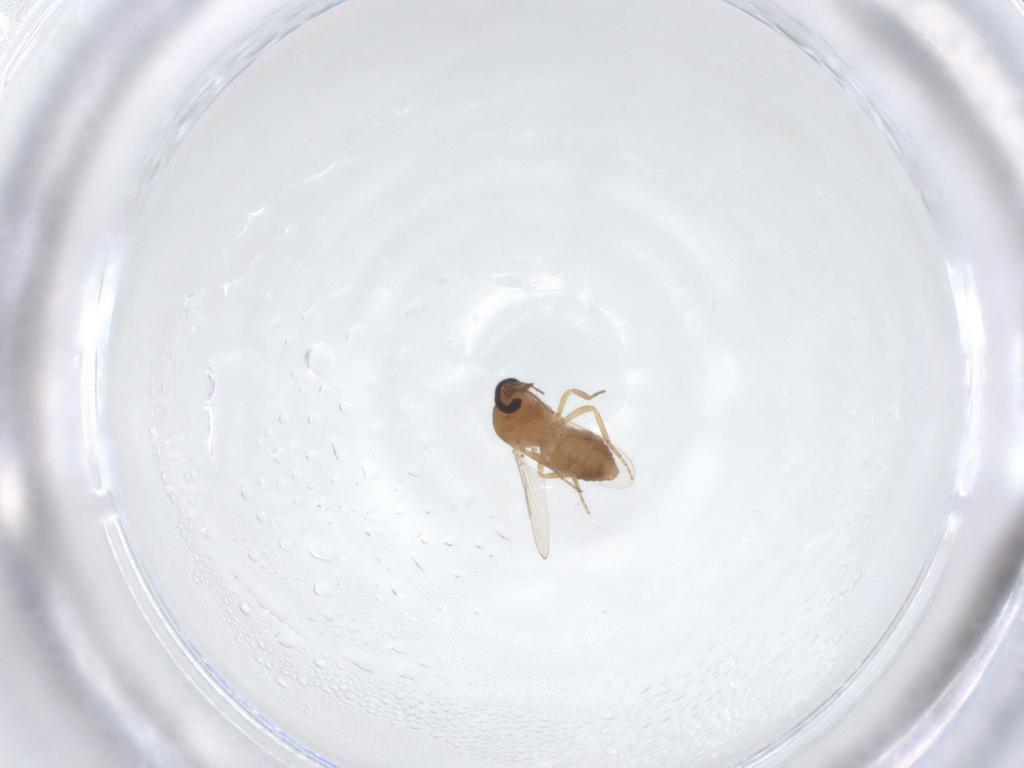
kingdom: Animalia
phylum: Arthropoda
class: Insecta
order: Diptera
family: Ceratopogonidae
